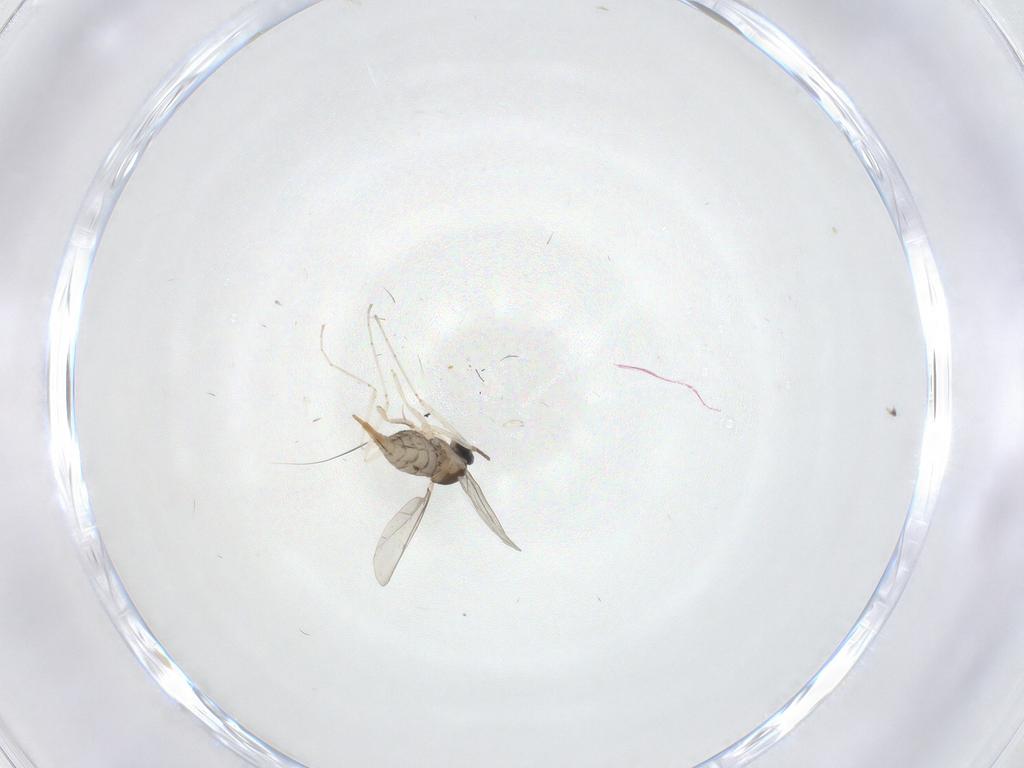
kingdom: Animalia
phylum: Arthropoda
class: Insecta
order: Diptera
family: Cecidomyiidae
